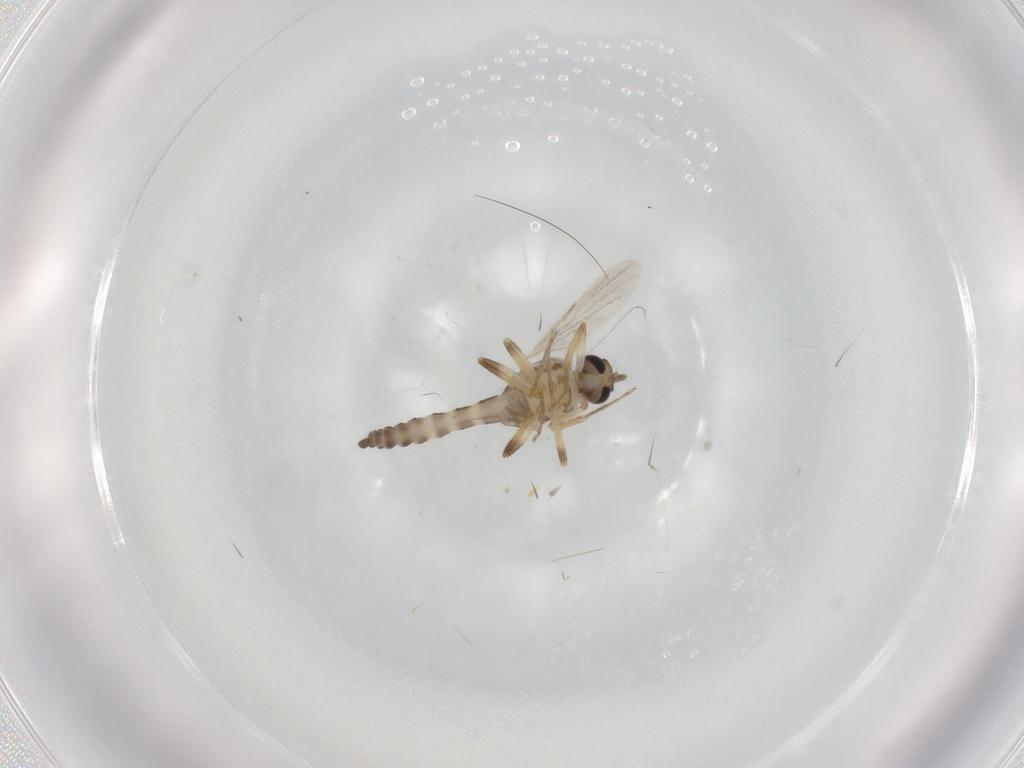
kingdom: Animalia
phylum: Arthropoda
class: Insecta
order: Diptera
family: Ceratopogonidae
